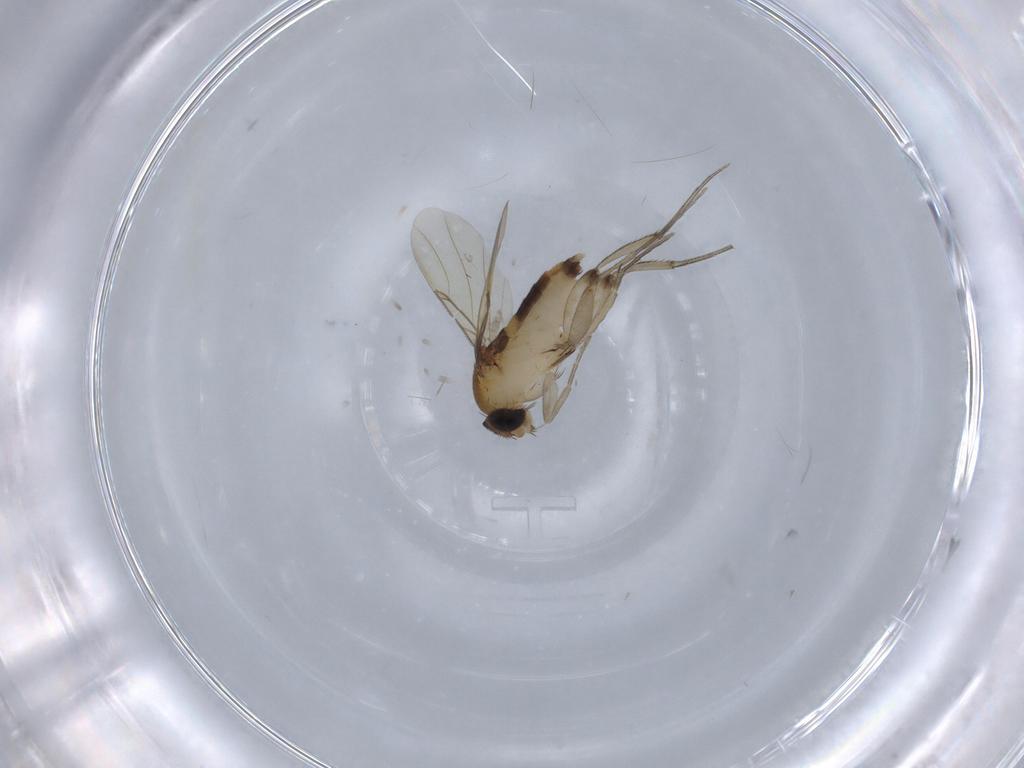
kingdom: Animalia
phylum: Arthropoda
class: Insecta
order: Diptera
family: Phoridae
